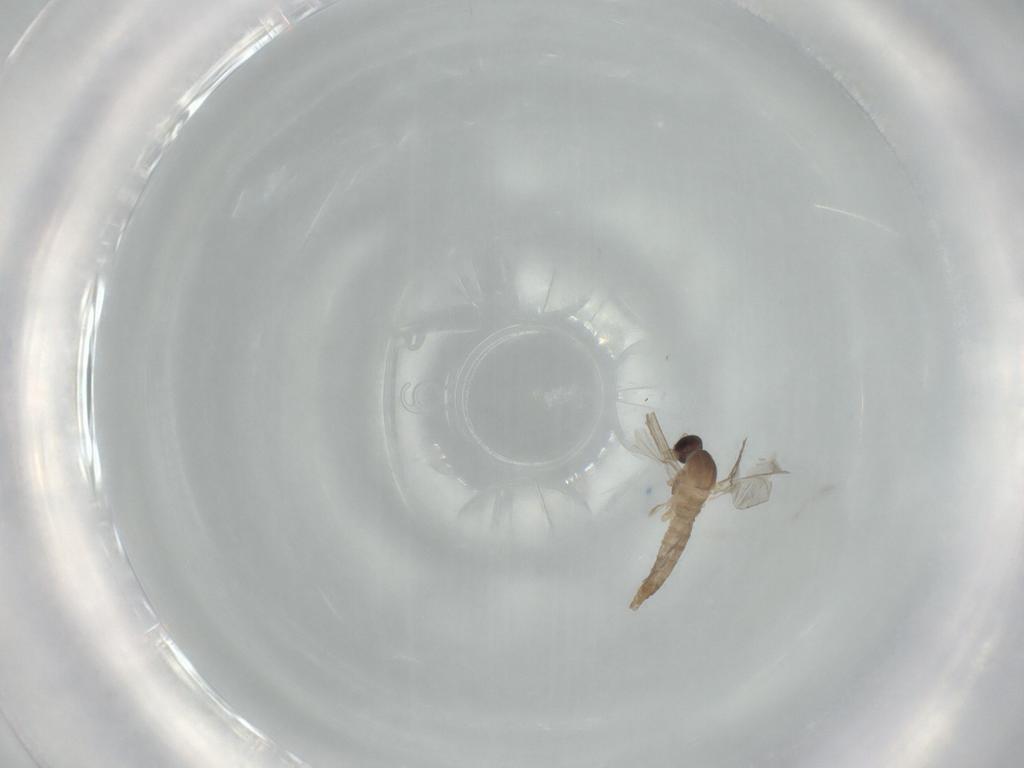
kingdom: Animalia
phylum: Arthropoda
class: Insecta
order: Diptera
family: Cecidomyiidae
